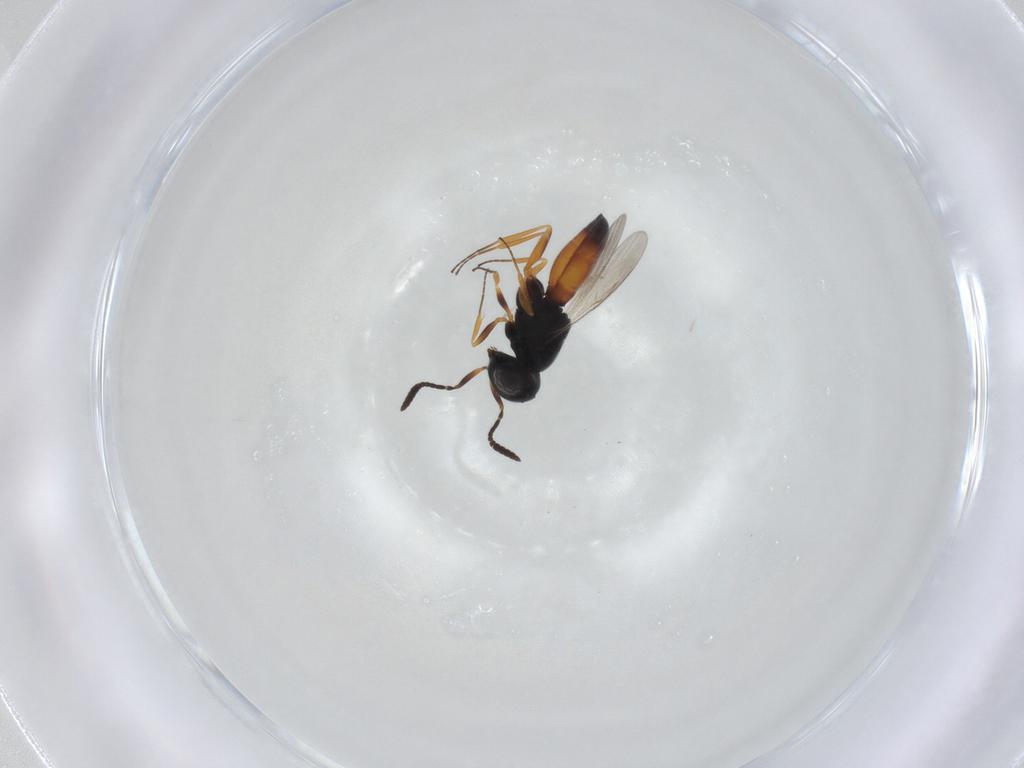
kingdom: Animalia
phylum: Arthropoda
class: Insecta
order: Hymenoptera
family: Scelionidae
